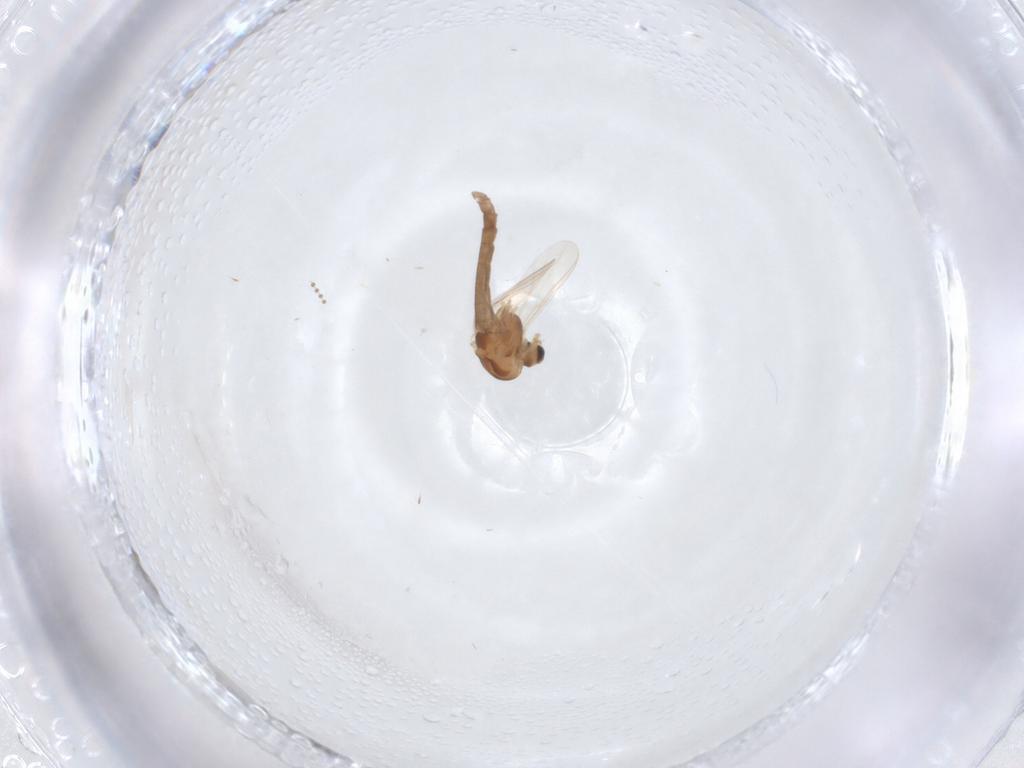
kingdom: Animalia
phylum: Arthropoda
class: Insecta
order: Diptera
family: Chironomidae
